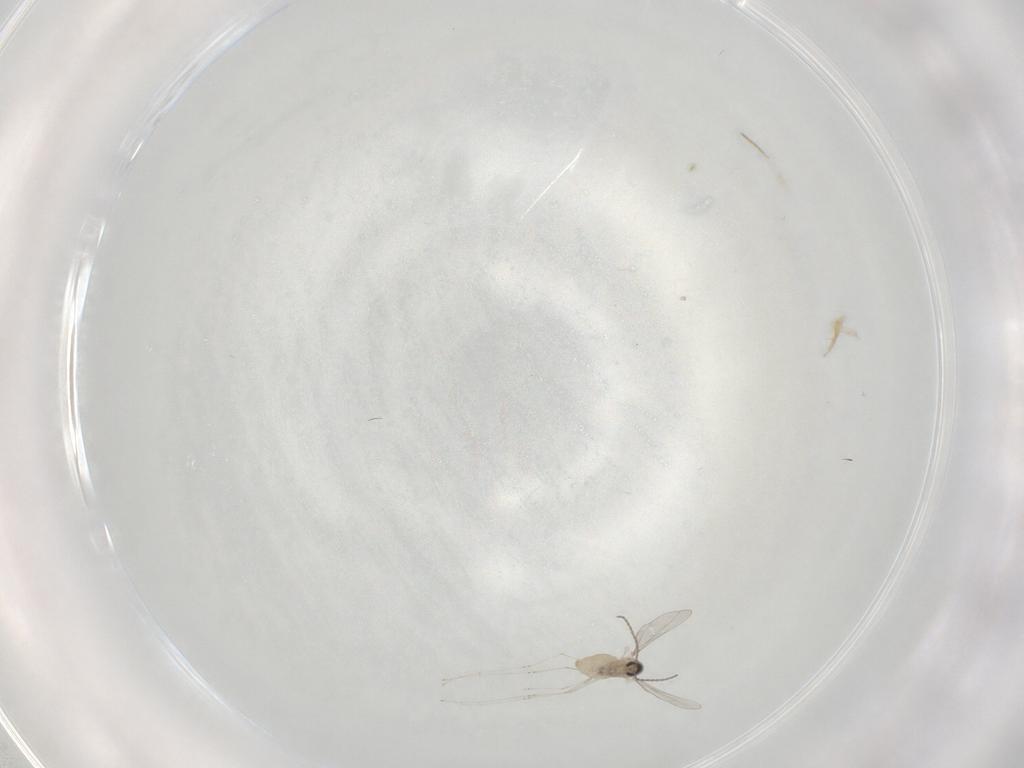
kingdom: Animalia
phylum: Arthropoda
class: Insecta
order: Diptera
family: Cecidomyiidae
